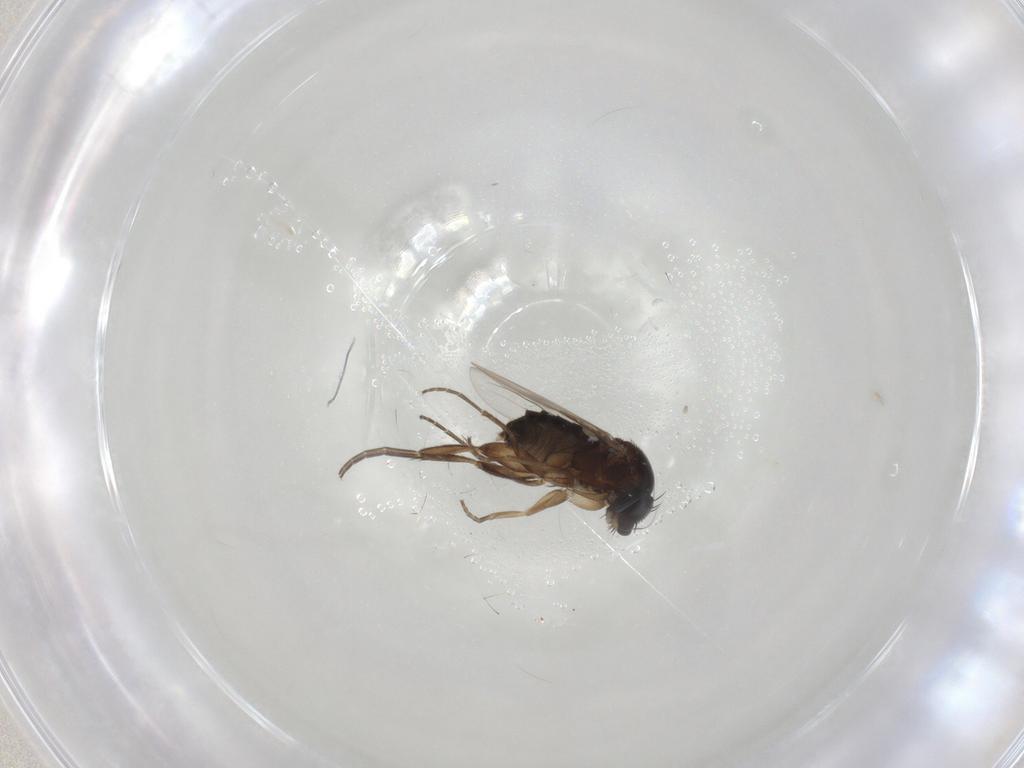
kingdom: Animalia
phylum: Arthropoda
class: Insecta
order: Diptera
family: Phoridae
